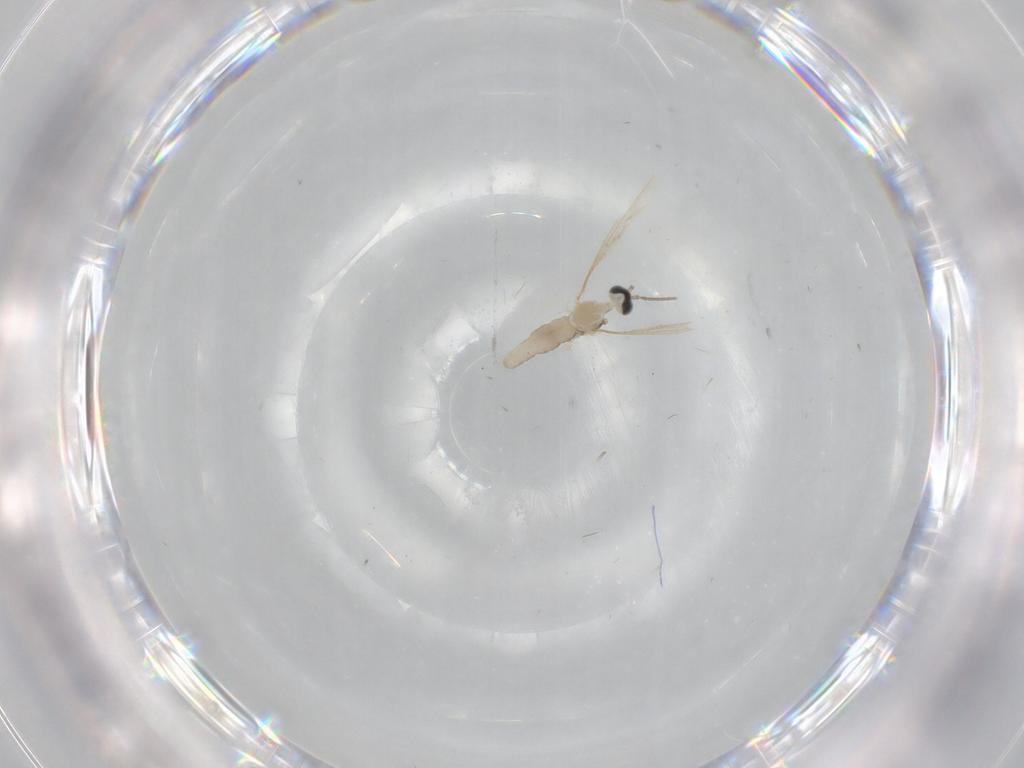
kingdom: Animalia
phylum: Arthropoda
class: Insecta
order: Diptera
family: Cecidomyiidae
